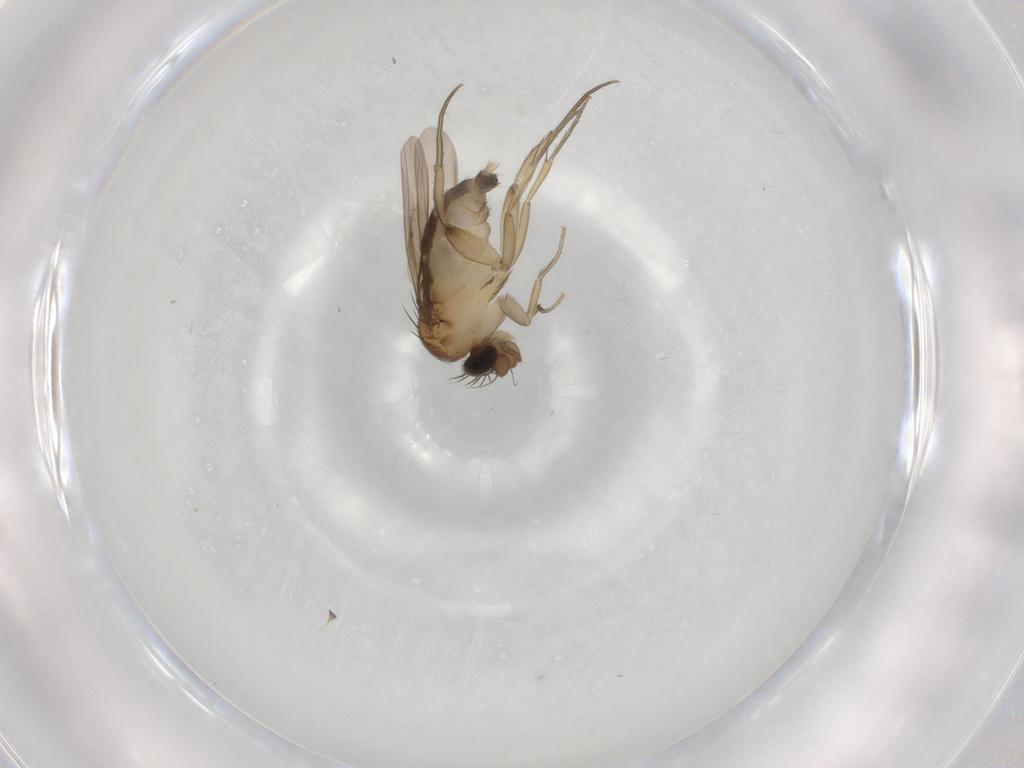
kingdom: Animalia
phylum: Arthropoda
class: Insecta
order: Diptera
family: Phoridae
